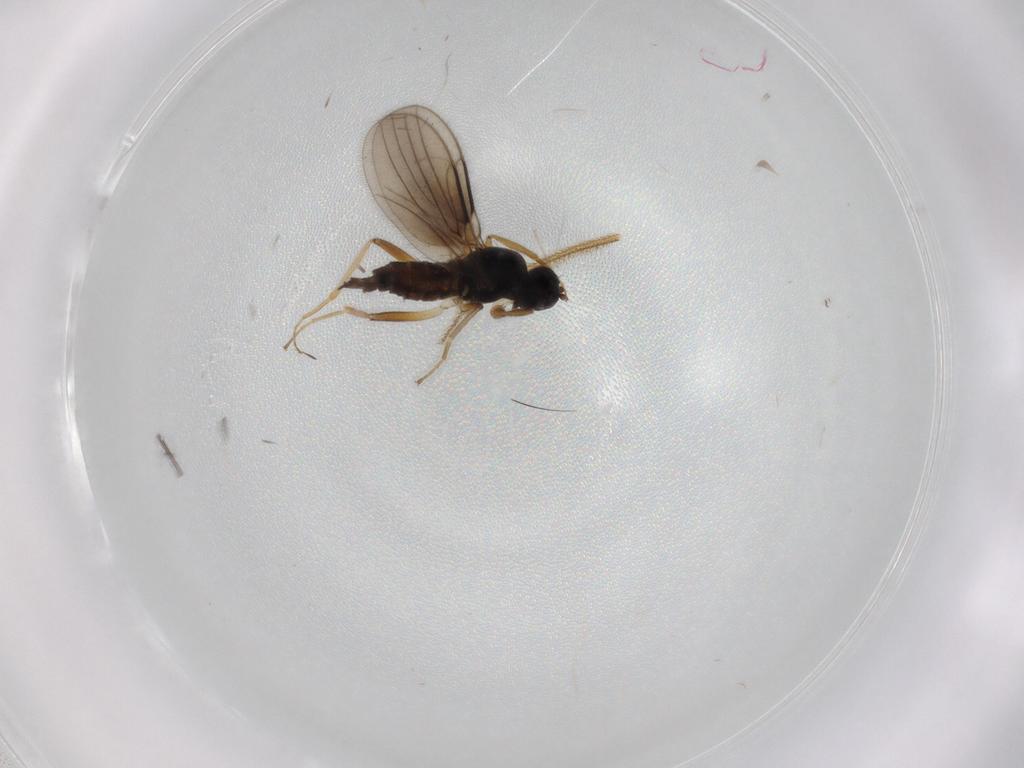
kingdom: Animalia
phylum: Arthropoda
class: Insecta
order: Diptera
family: Hybotidae
